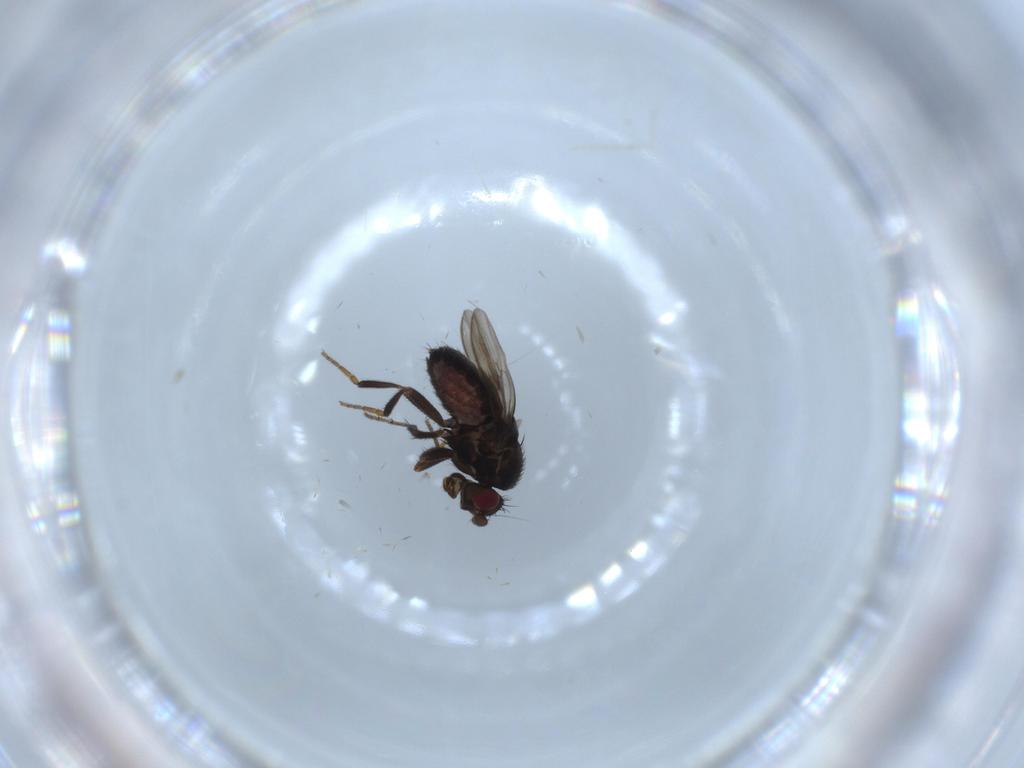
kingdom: Animalia
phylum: Arthropoda
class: Insecta
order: Diptera
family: Sphaeroceridae
